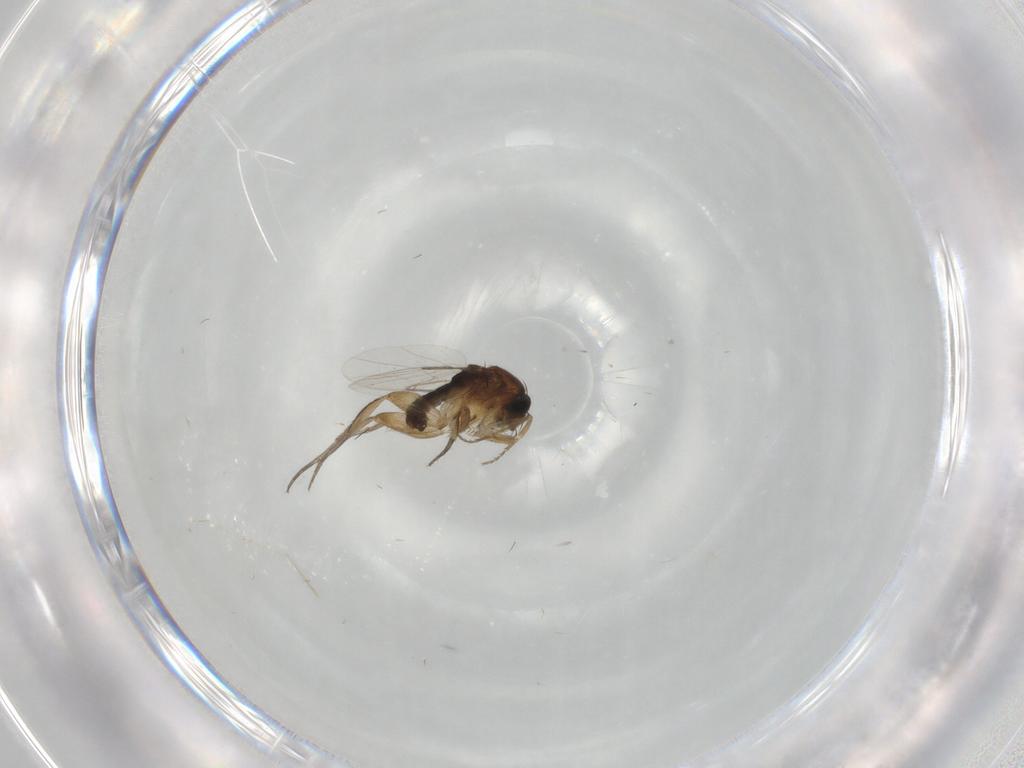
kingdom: Animalia
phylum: Arthropoda
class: Insecta
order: Diptera
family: Phoridae
